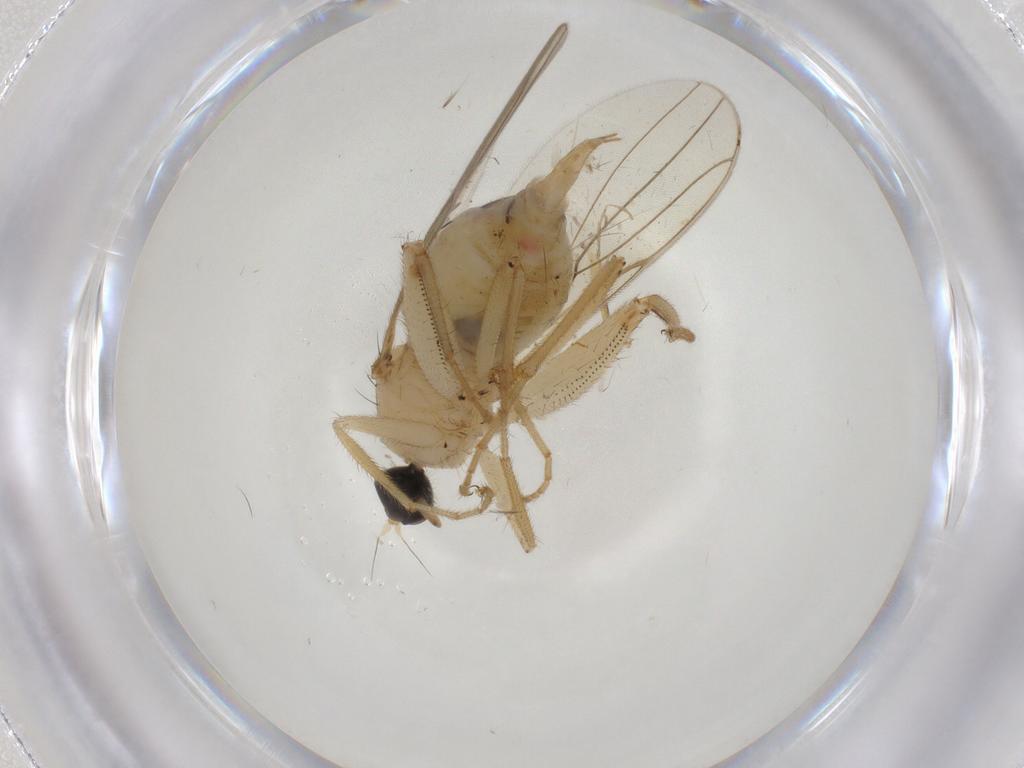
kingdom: Animalia
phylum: Arthropoda
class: Insecta
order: Diptera
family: Hybotidae
